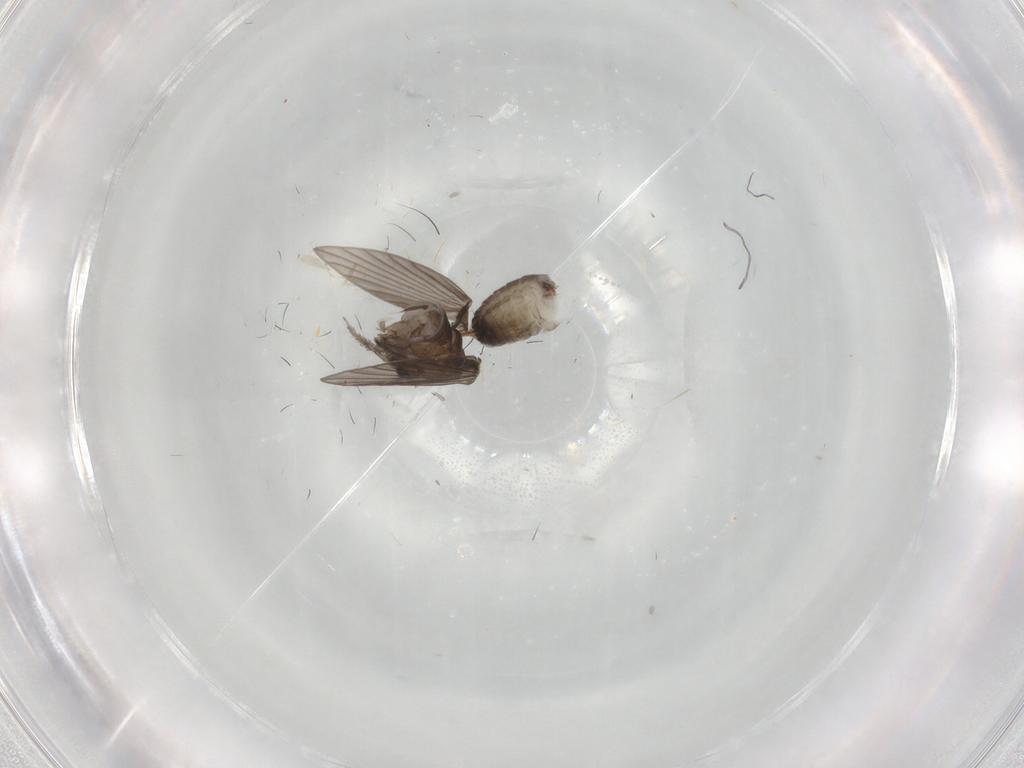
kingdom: Animalia
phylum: Arthropoda
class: Insecta
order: Diptera
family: Psychodidae
